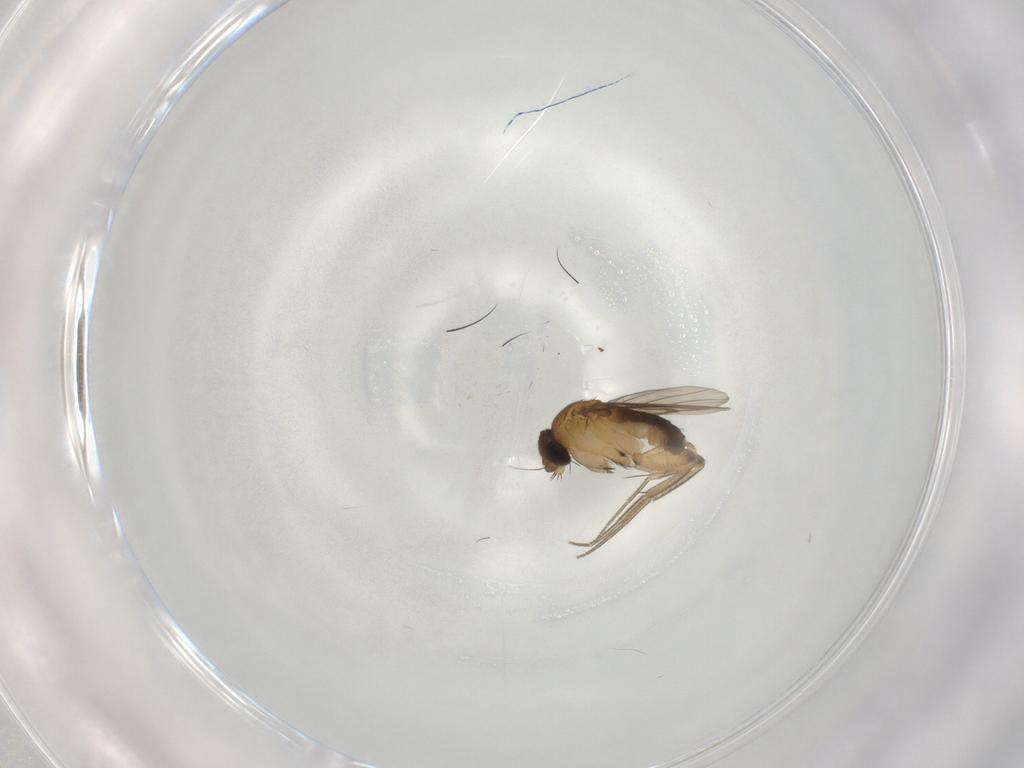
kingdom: Animalia
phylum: Arthropoda
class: Insecta
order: Diptera
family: Phoridae
